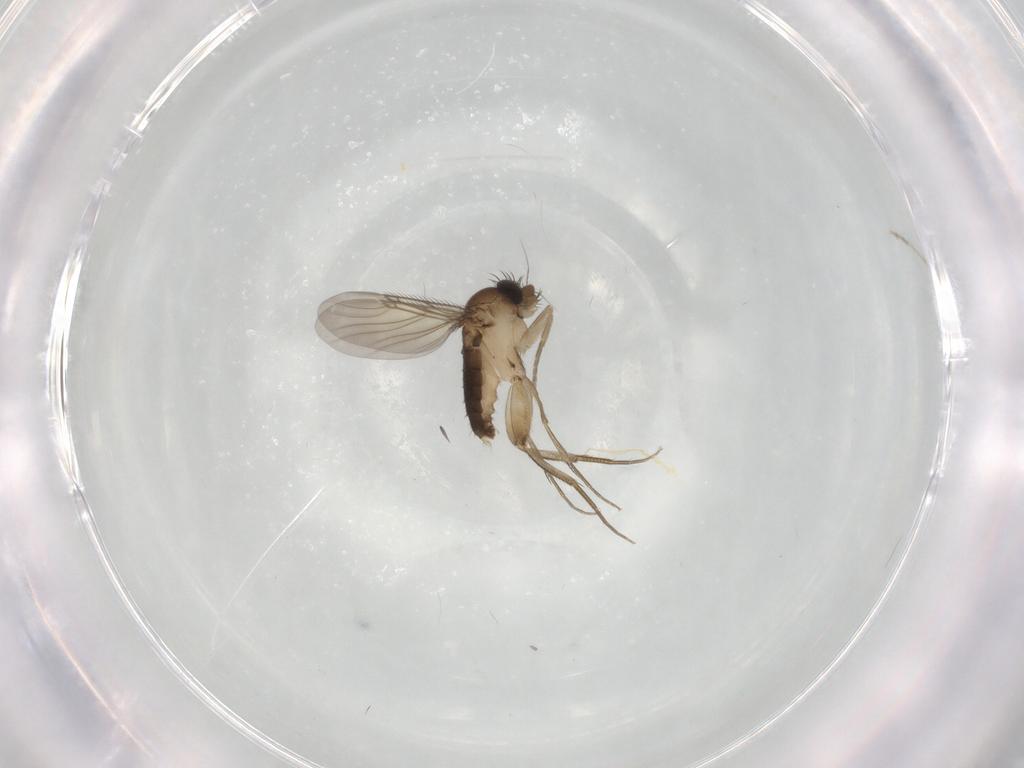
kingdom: Animalia
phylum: Arthropoda
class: Insecta
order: Diptera
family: Phoridae
